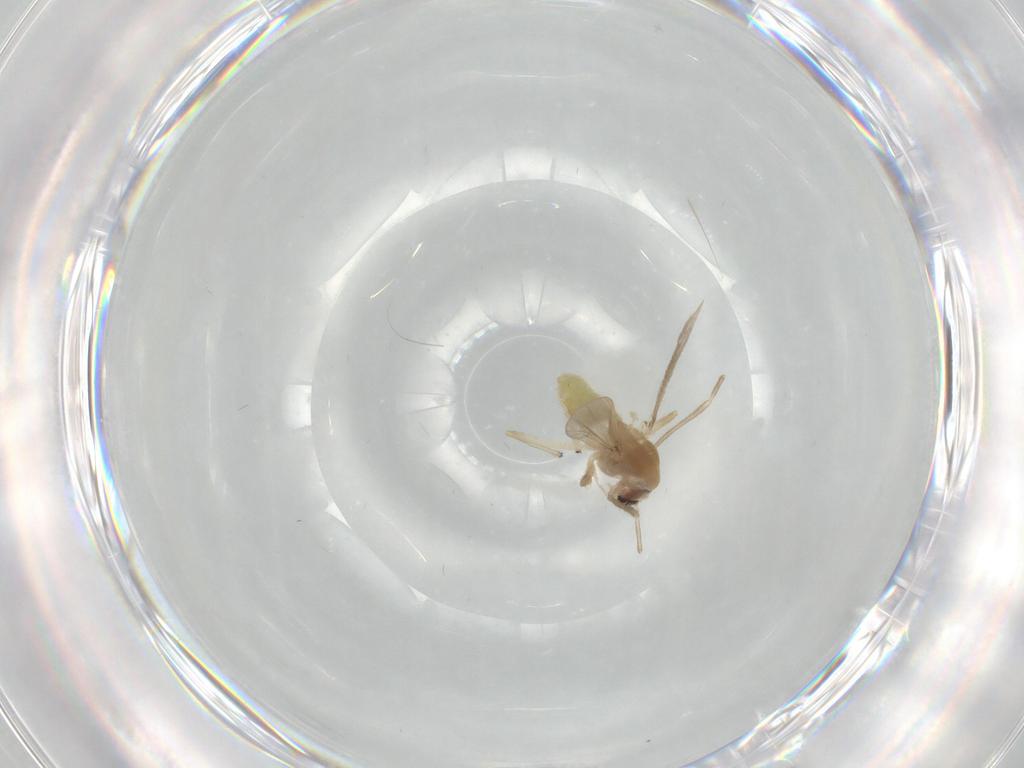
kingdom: Animalia
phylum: Arthropoda
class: Insecta
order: Diptera
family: Chironomidae
